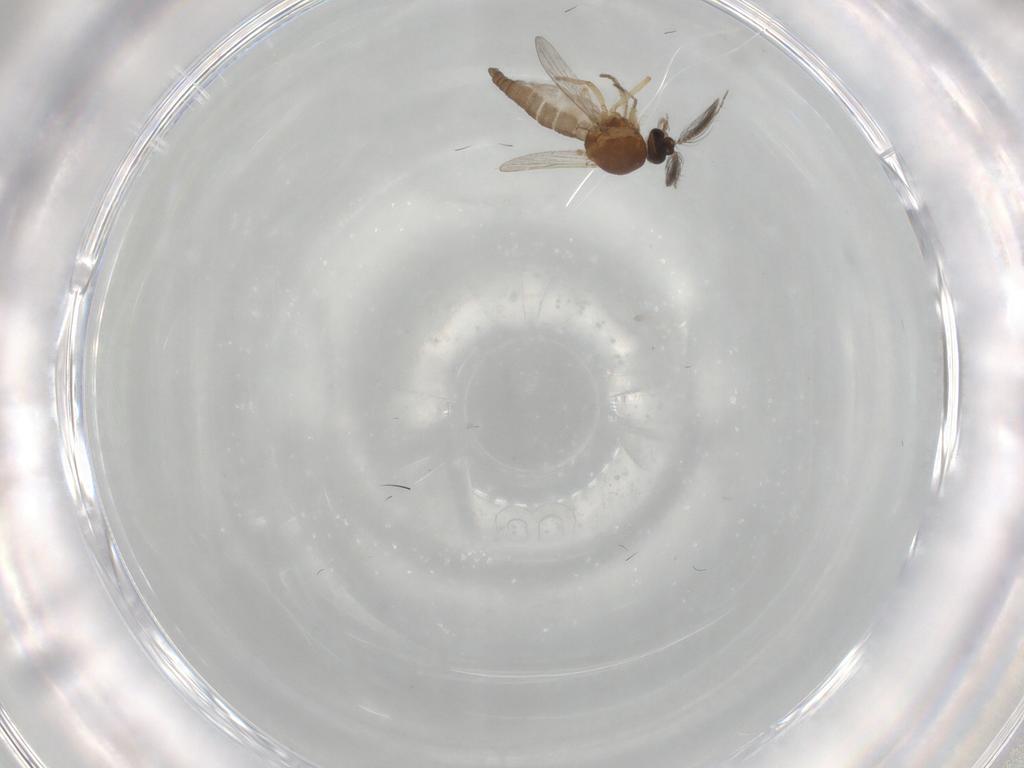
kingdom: Animalia
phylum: Arthropoda
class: Insecta
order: Diptera
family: Ceratopogonidae
